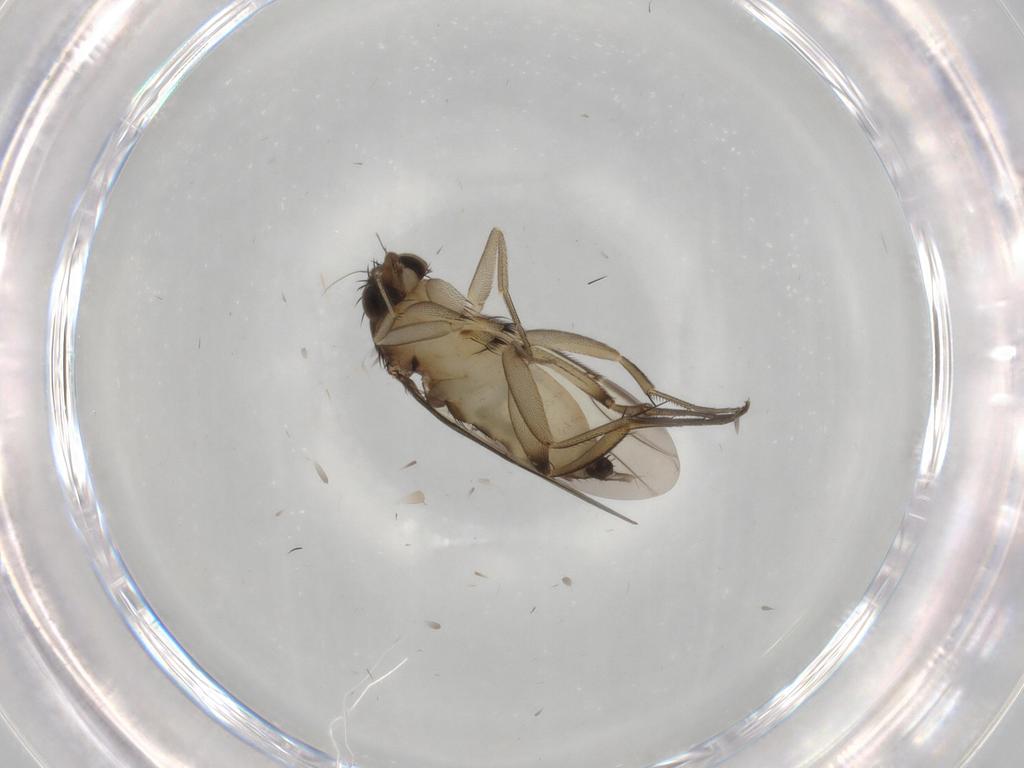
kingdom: Animalia
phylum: Arthropoda
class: Insecta
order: Diptera
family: Phoridae
